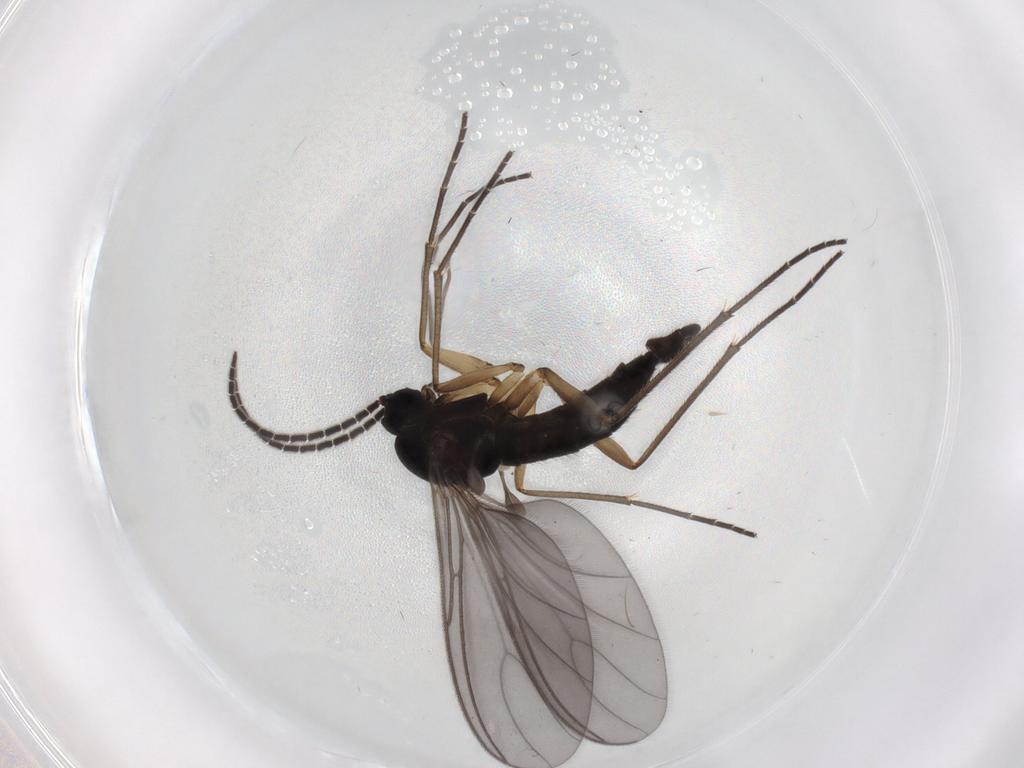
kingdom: Animalia
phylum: Arthropoda
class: Insecta
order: Diptera
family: Sciaridae
